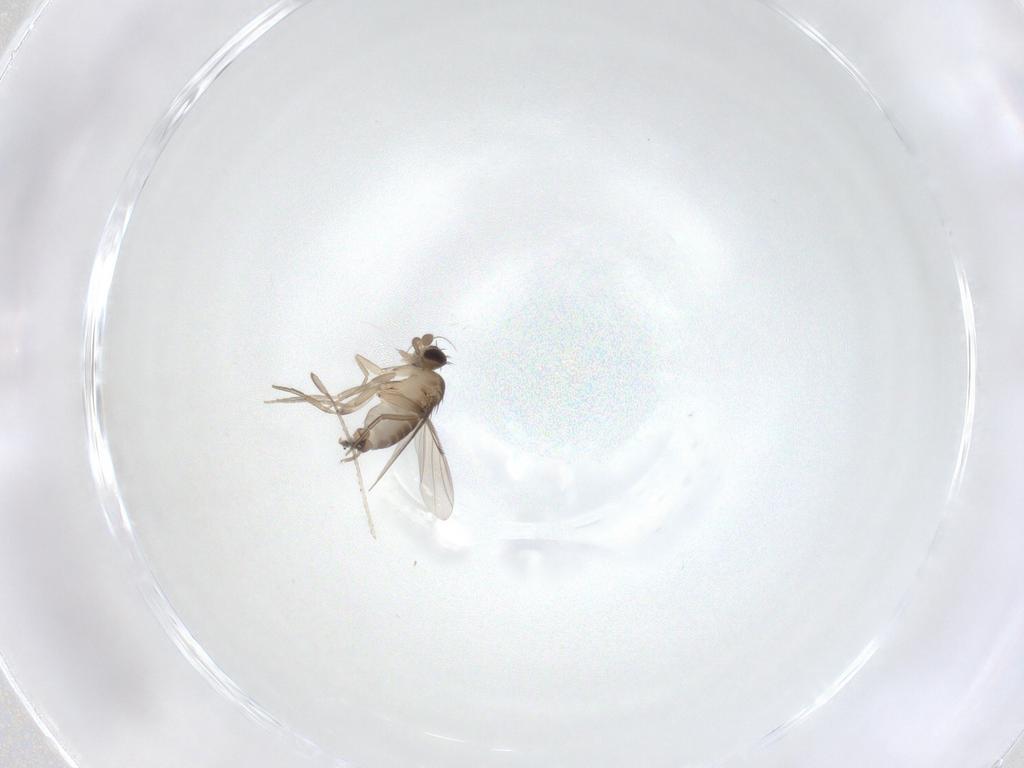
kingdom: Animalia
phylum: Arthropoda
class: Insecta
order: Diptera
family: Cecidomyiidae
